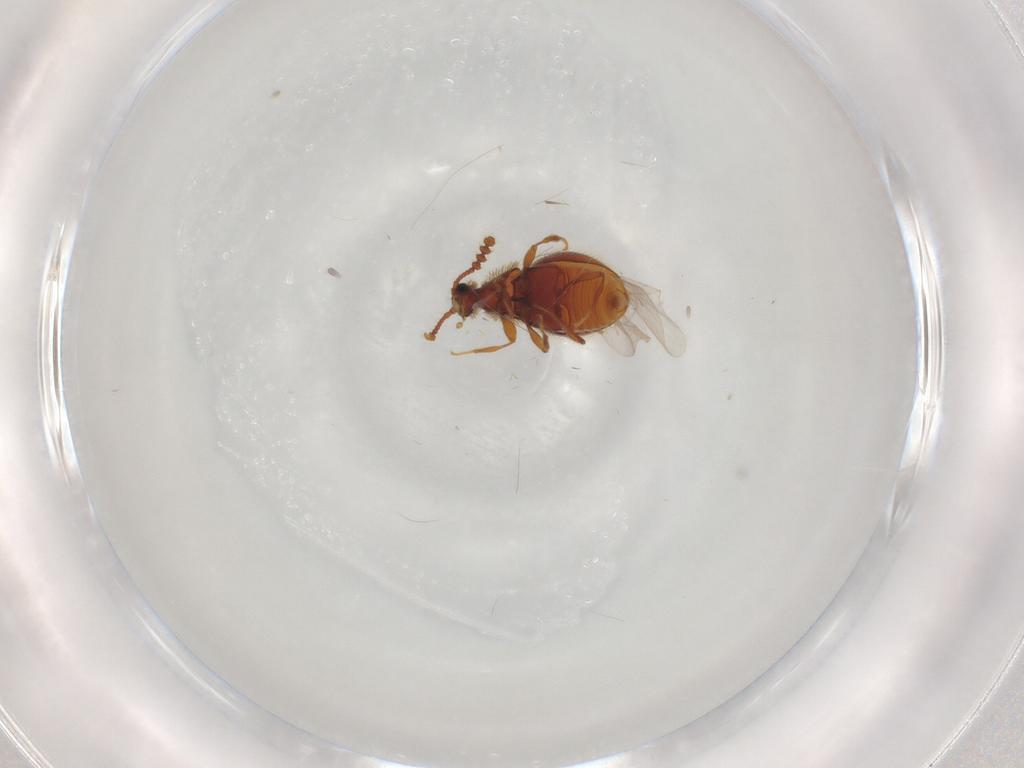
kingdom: Animalia
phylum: Arthropoda
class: Insecta
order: Coleoptera
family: Staphylinidae
